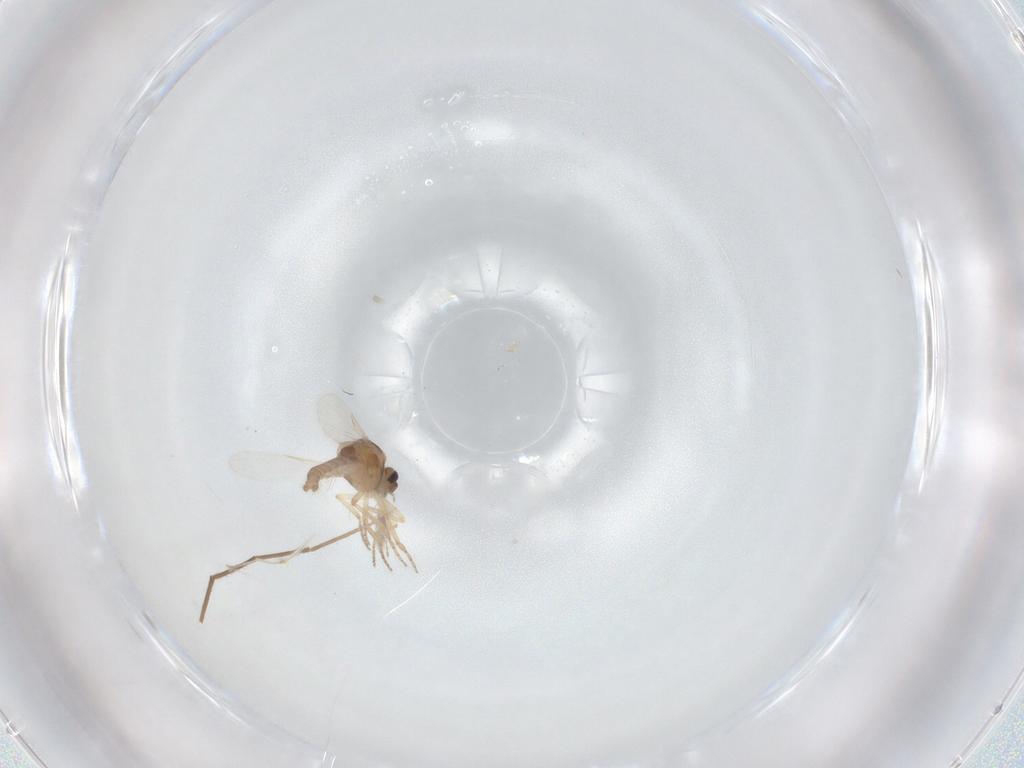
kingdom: Animalia
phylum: Arthropoda
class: Insecta
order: Diptera
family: Ceratopogonidae
